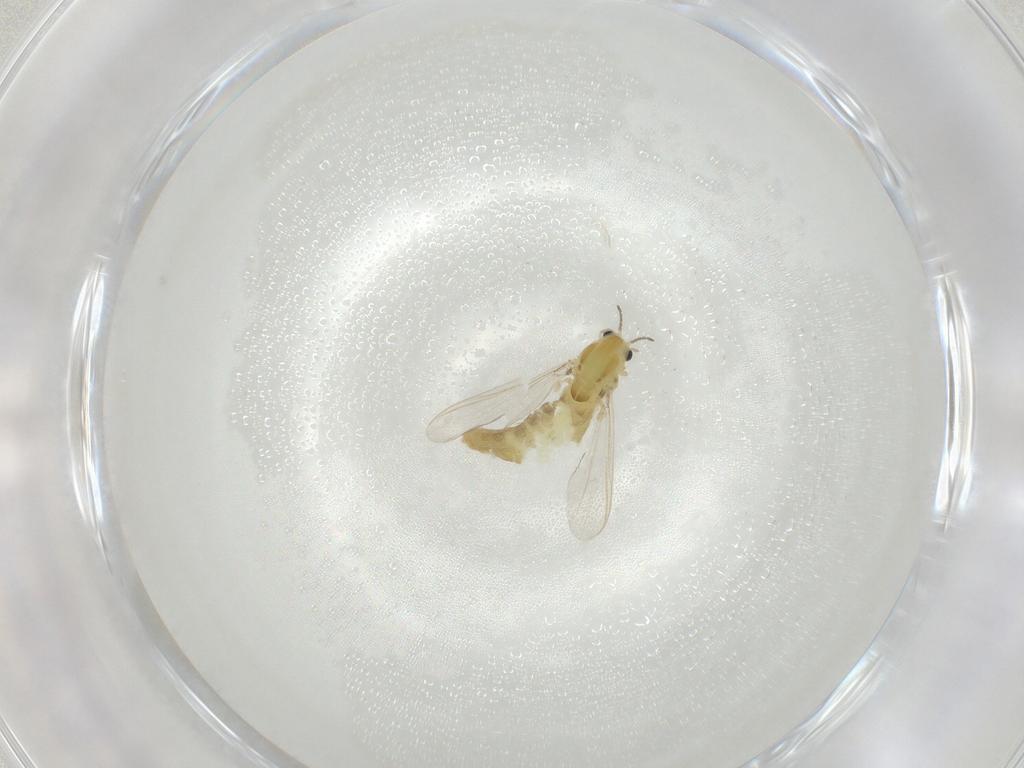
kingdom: Animalia
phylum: Arthropoda
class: Insecta
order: Diptera
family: Chironomidae
